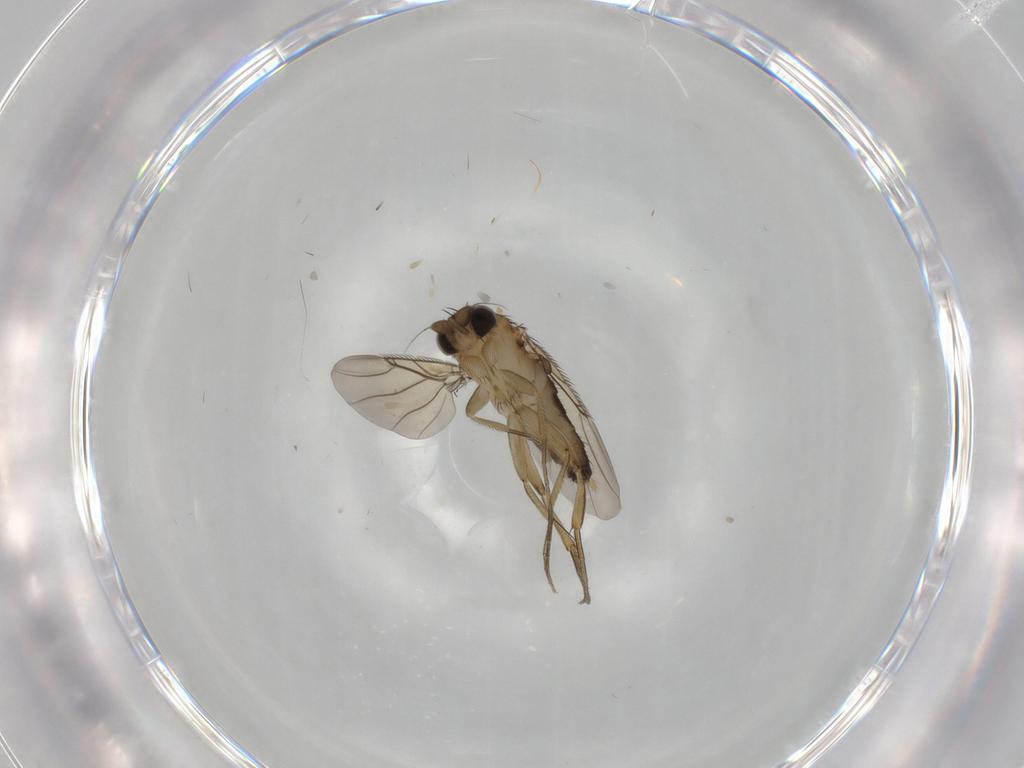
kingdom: Animalia
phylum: Arthropoda
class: Insecta
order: Diptera
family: Phoridae
